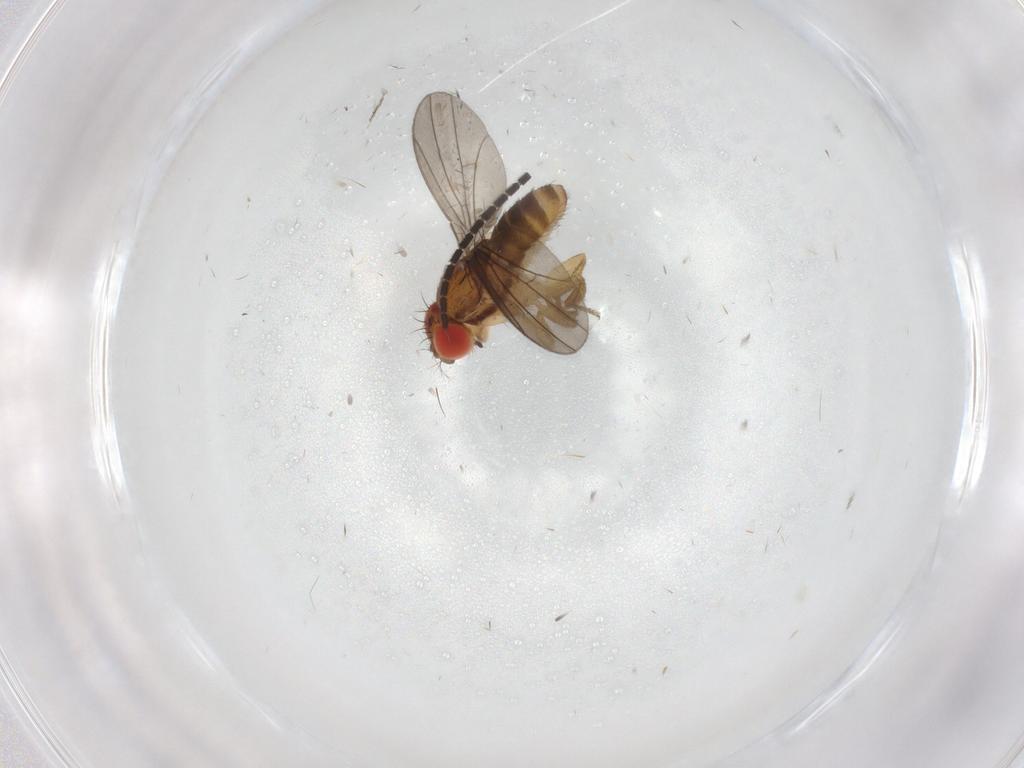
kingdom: Animalia
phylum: Arthropoda
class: Insecta
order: Diptera
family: Drosophilidae
